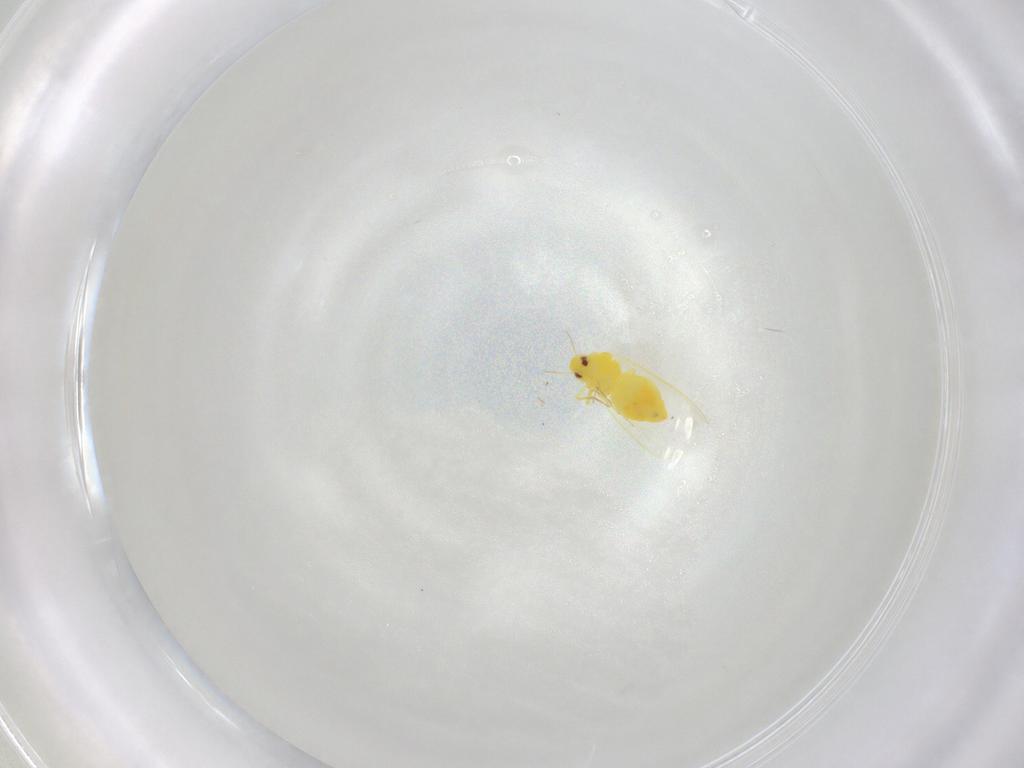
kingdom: Animalia
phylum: Arthropoda
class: Insecta
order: Hemiptera
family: Aleyrodidae
